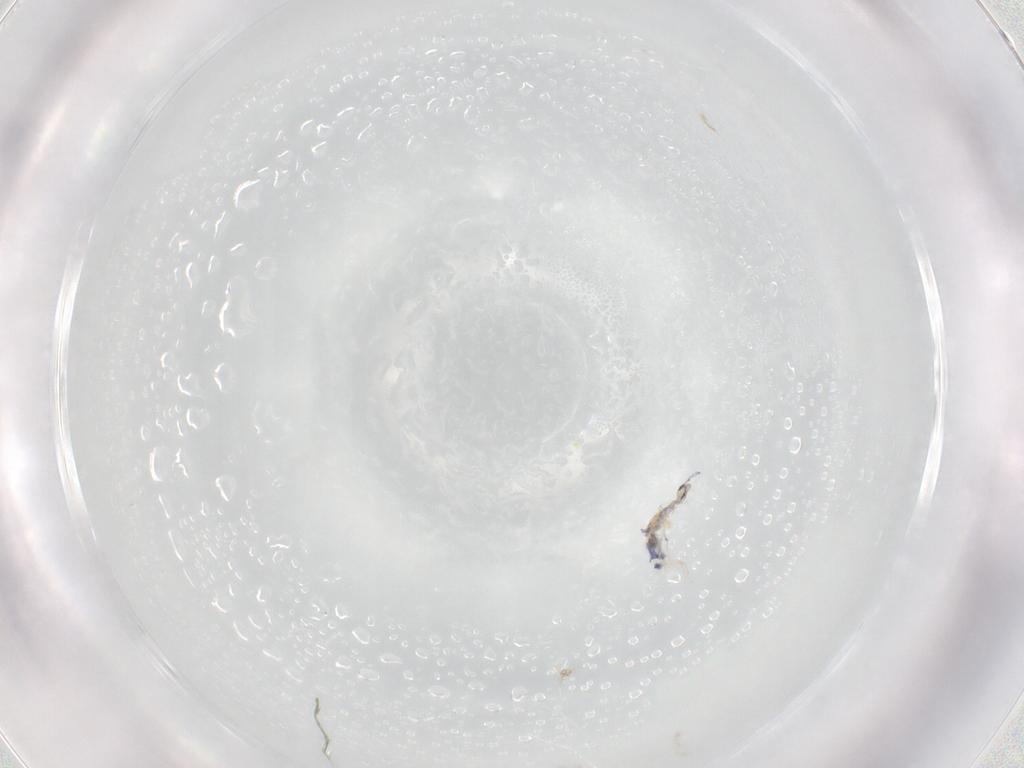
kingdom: Animalia
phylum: Arthropoda
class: Collembola
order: Entomobryomorpha
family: Entomobryidae
